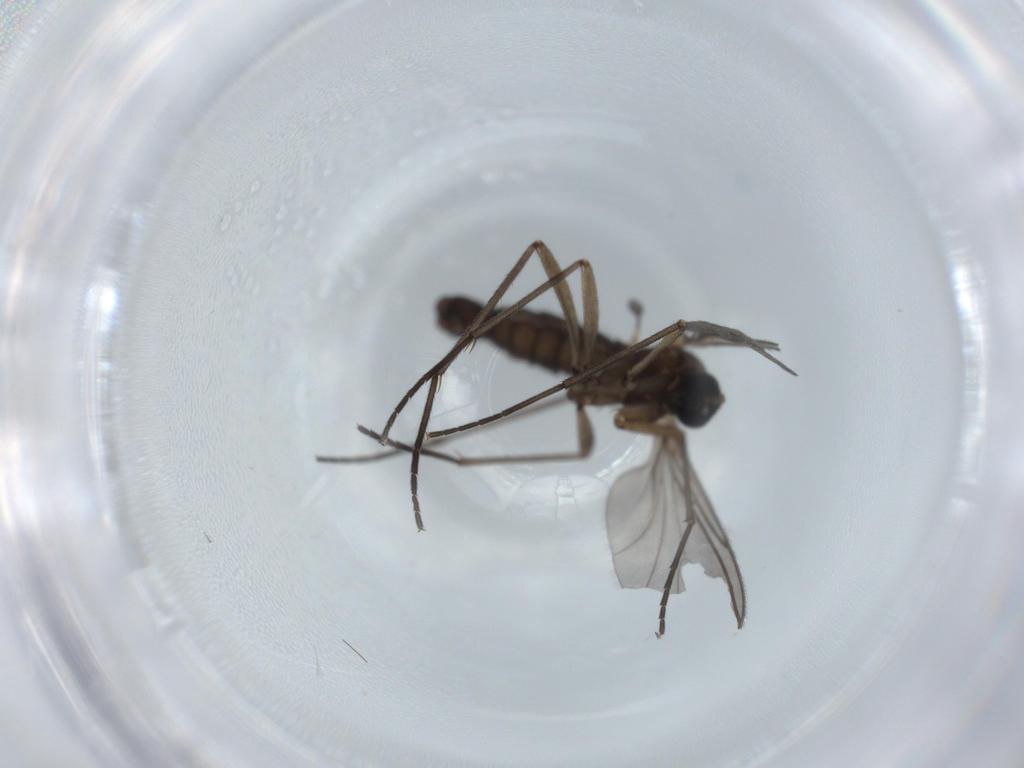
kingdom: Animalia
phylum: Arthropoda
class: Insecta
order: Diptera
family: Sciaridae
